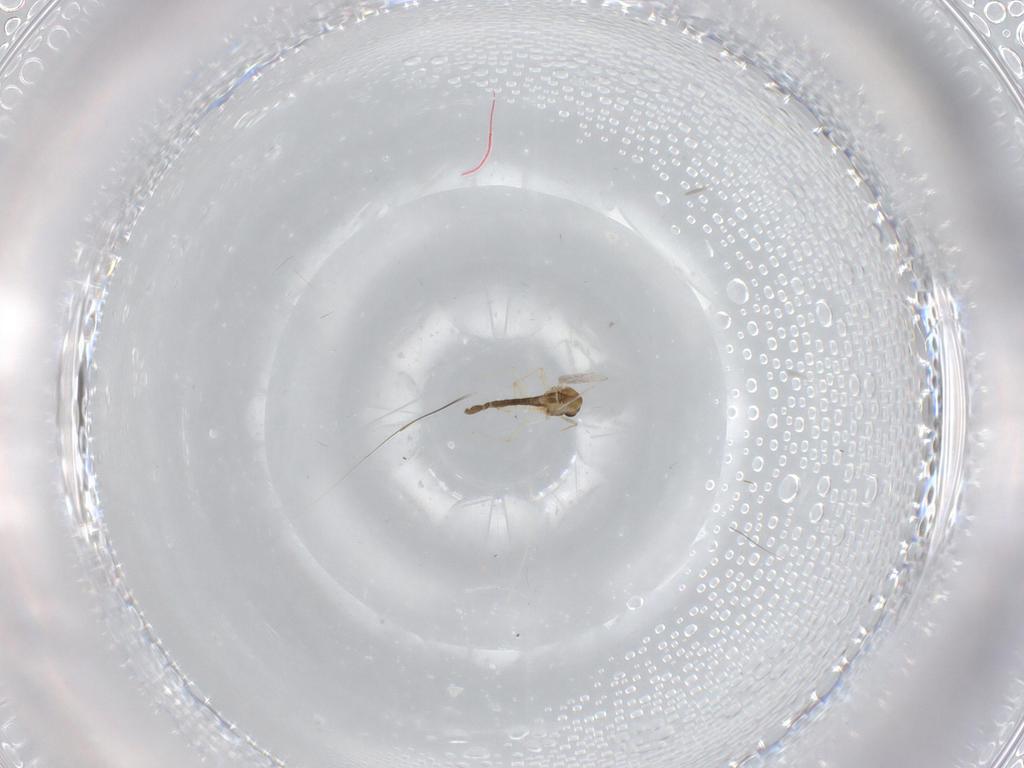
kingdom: Animalia
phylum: Arthropoda
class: Insecta
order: Diptera
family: Chironomidae
